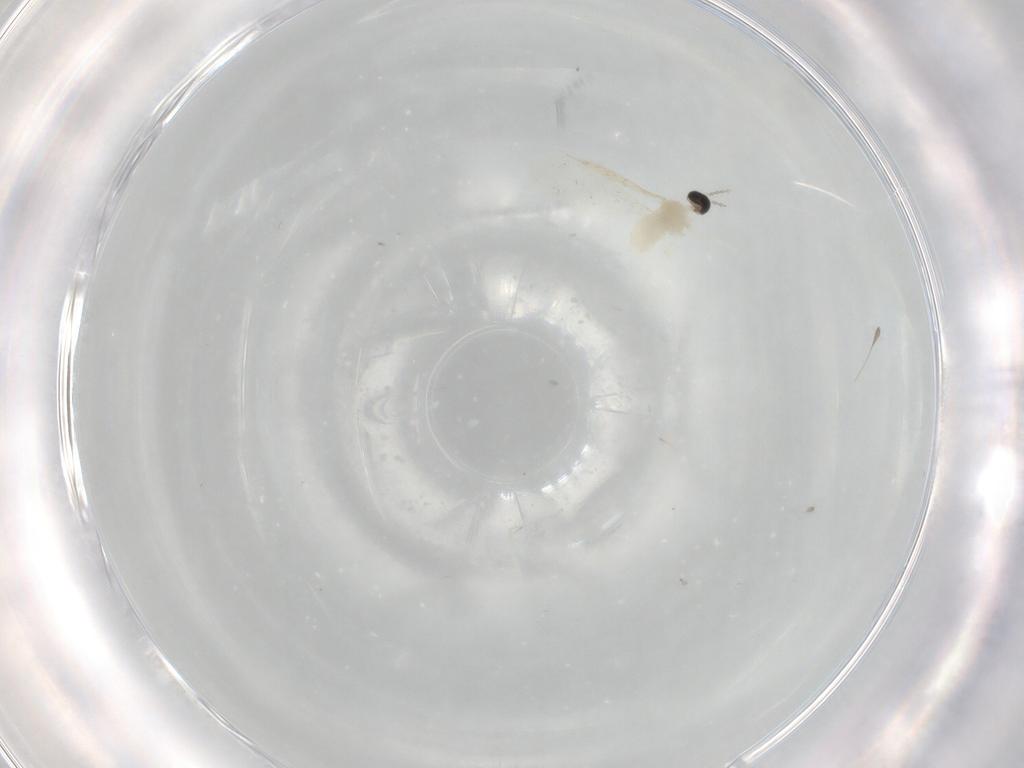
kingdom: Animalia
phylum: Arthropoda
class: Insecta
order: Diptera
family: Cecidomyiidae
